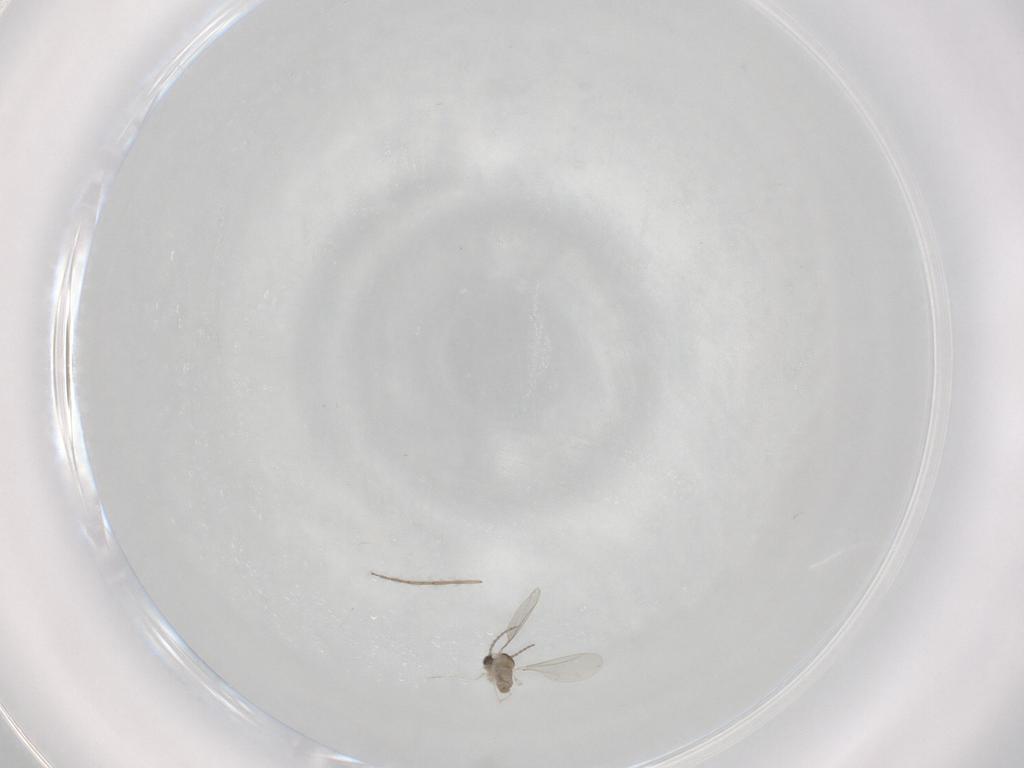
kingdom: Animalia
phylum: Arthropoda
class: Insecta
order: Diptera
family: Cecidomyiidae
